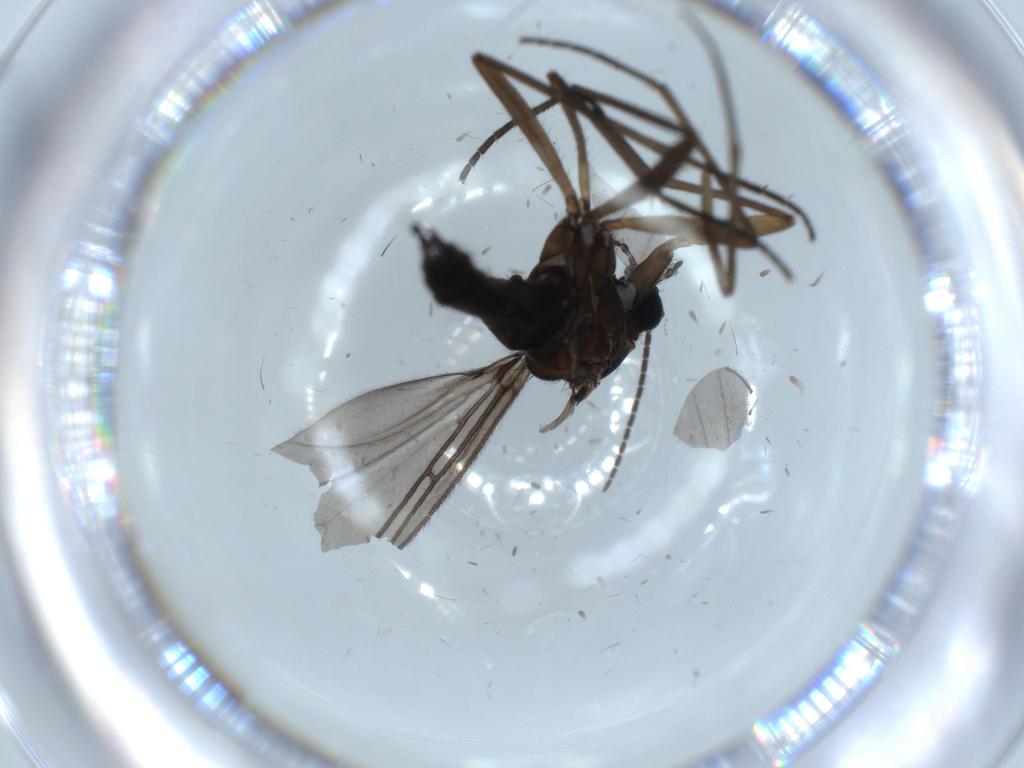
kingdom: Animalia
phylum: Arthropoda
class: Insecta
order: Diptera
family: Sciaridae
